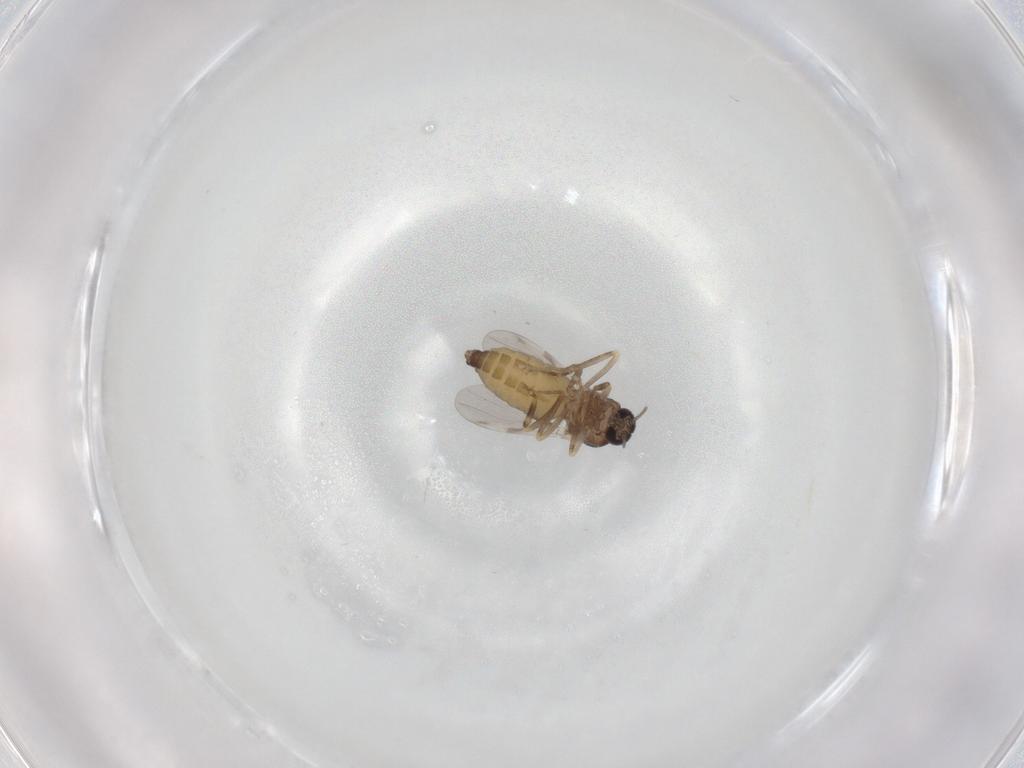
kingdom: Animalia
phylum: Arthropoda
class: Insecta
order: Diptera
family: Ceratopogonidae
